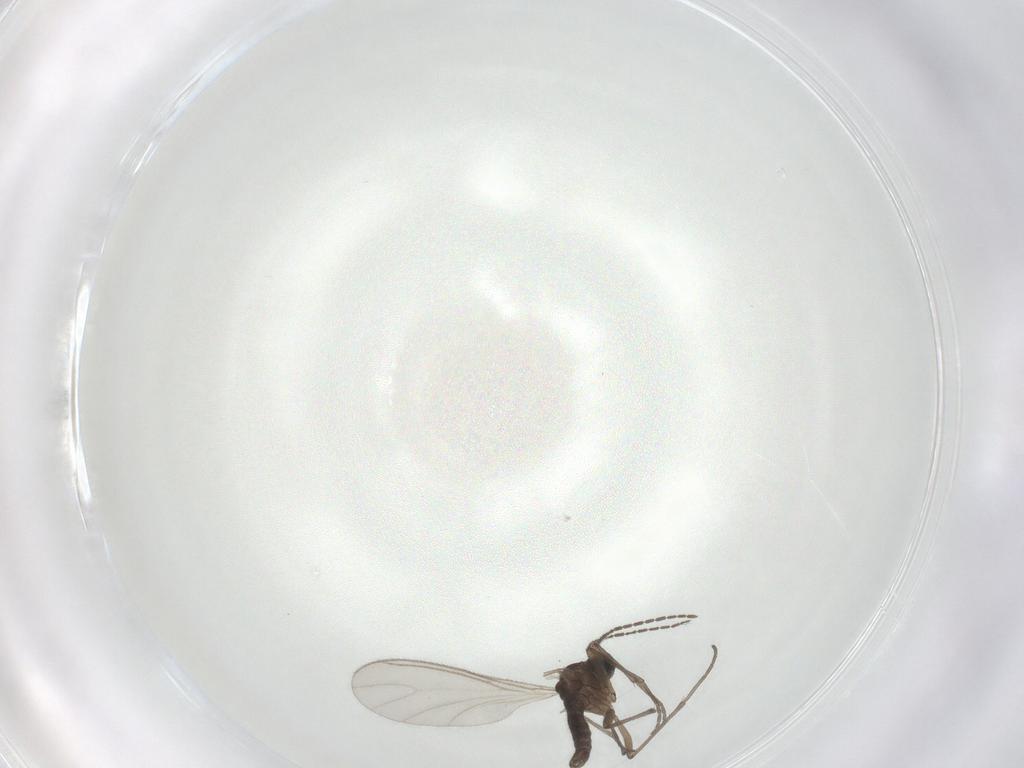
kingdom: Animalia
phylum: Arthropoda
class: Insecta
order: Diptera
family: Sciaridae
